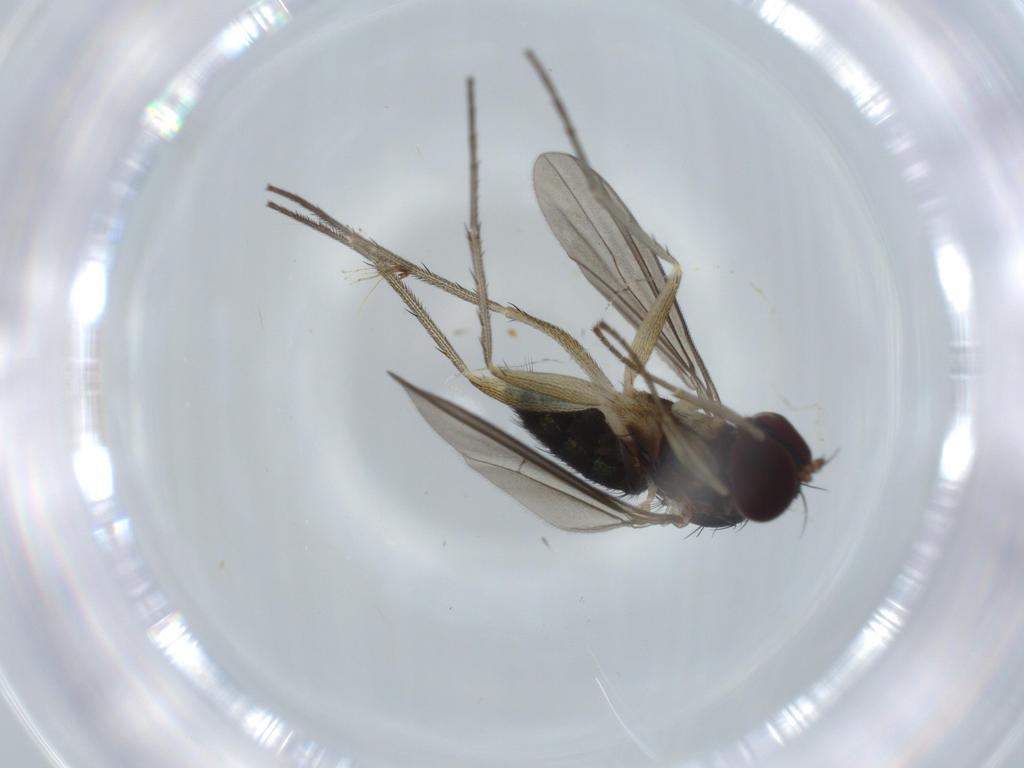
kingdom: Animalia
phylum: Arthropoda
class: Insecta
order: Diptera
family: Dolichopodidae
